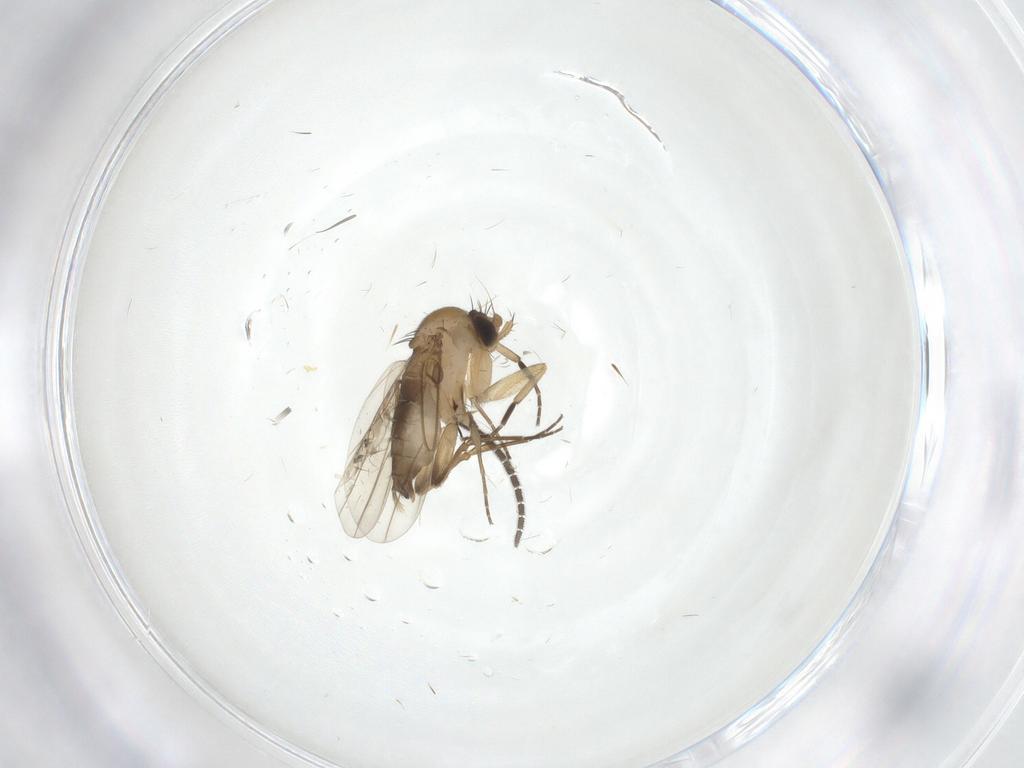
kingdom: Animalia
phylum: Arthropoda
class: Insecta
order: Diptera
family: Phoridae
